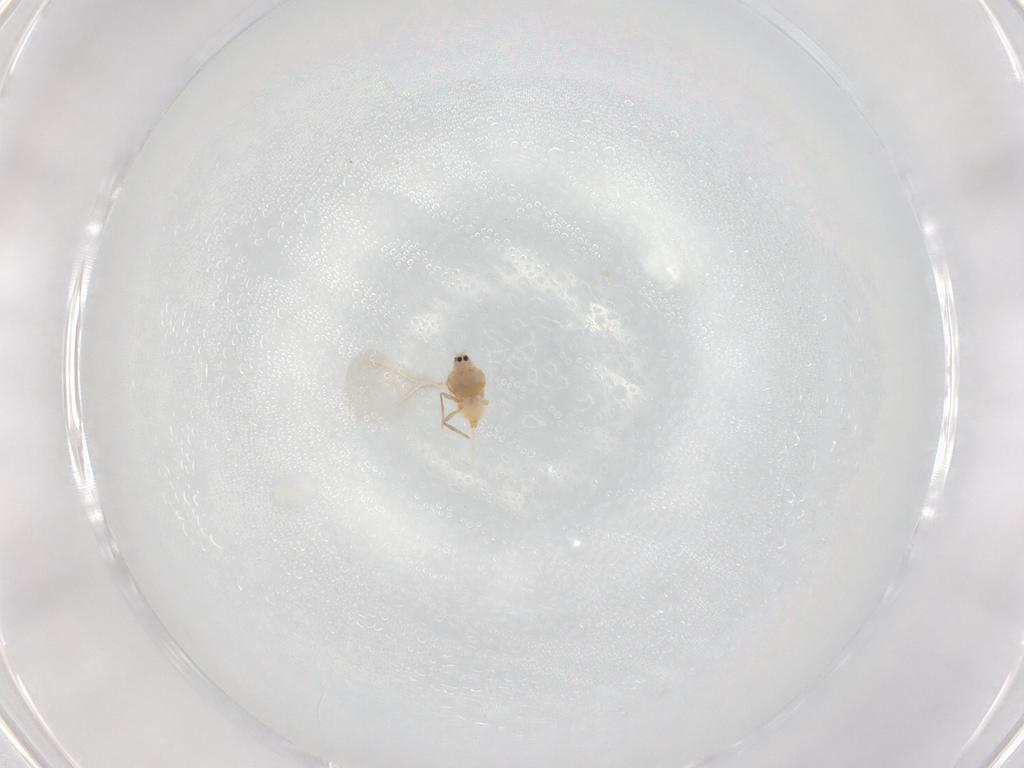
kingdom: Animalia
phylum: Arthropoda
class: Insecta
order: Hemiptera
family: Diaspididae
